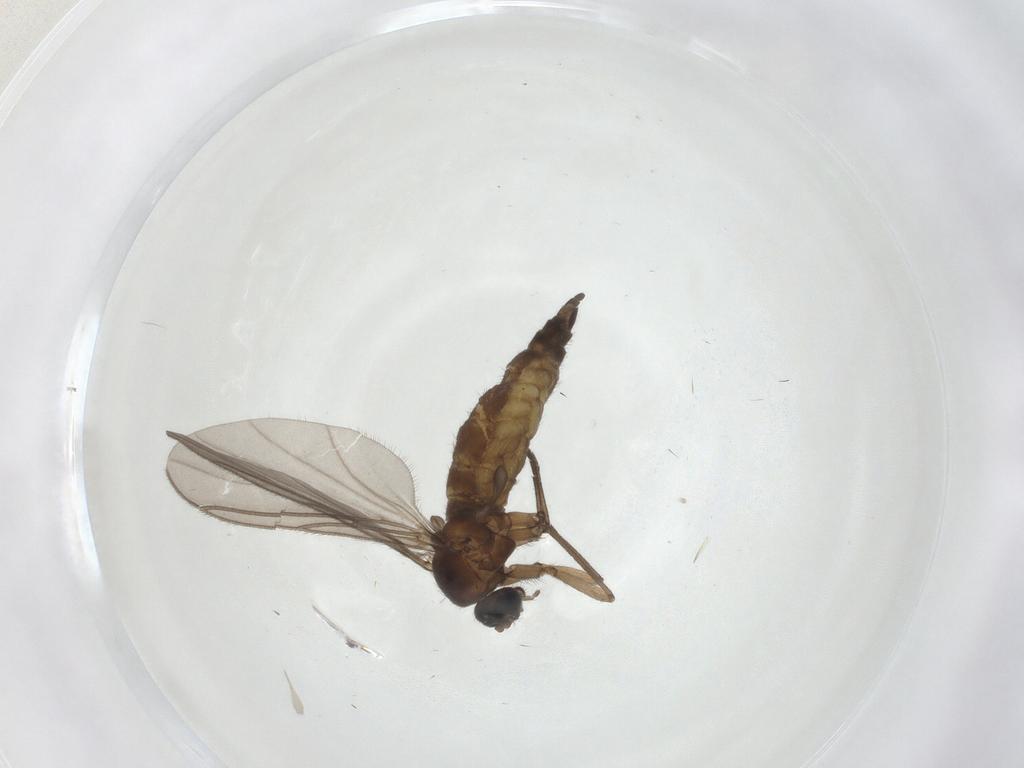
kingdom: Animalia
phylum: Arthropoda
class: Insecta
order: Diptera
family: Sciaridae
